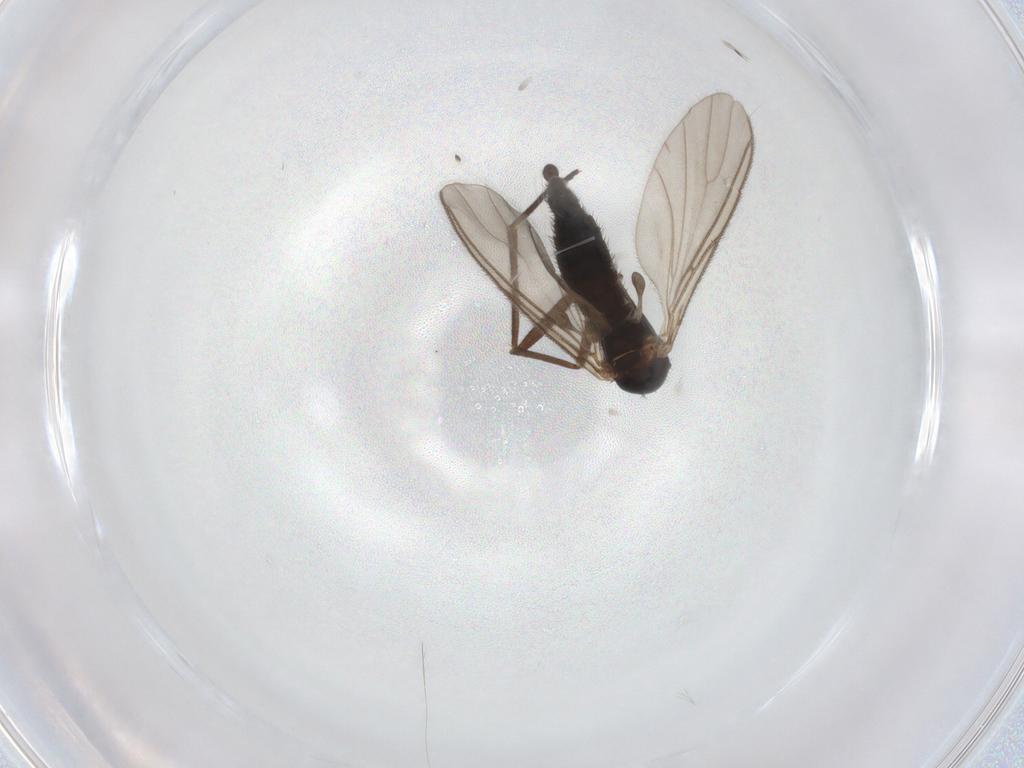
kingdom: Animalia
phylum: Arthropoda
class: Insecta
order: Diptera
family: Sciaridae
